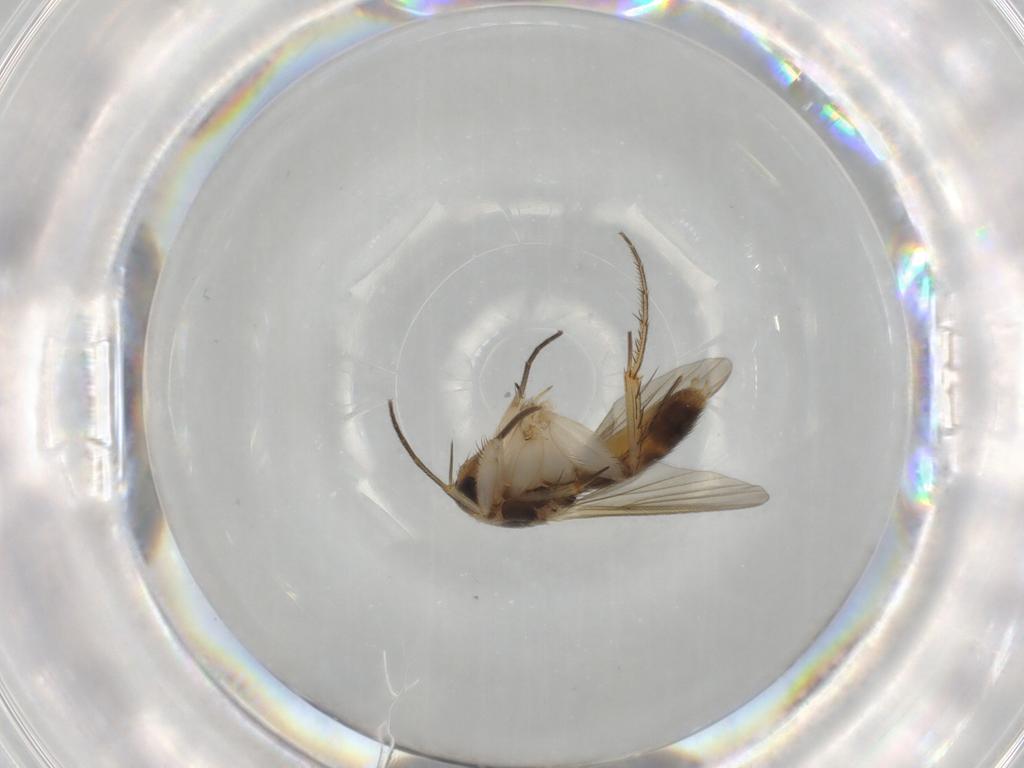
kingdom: Animalia
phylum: Arthropoda
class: Insecta
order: Diptera
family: Mycetophilidae
